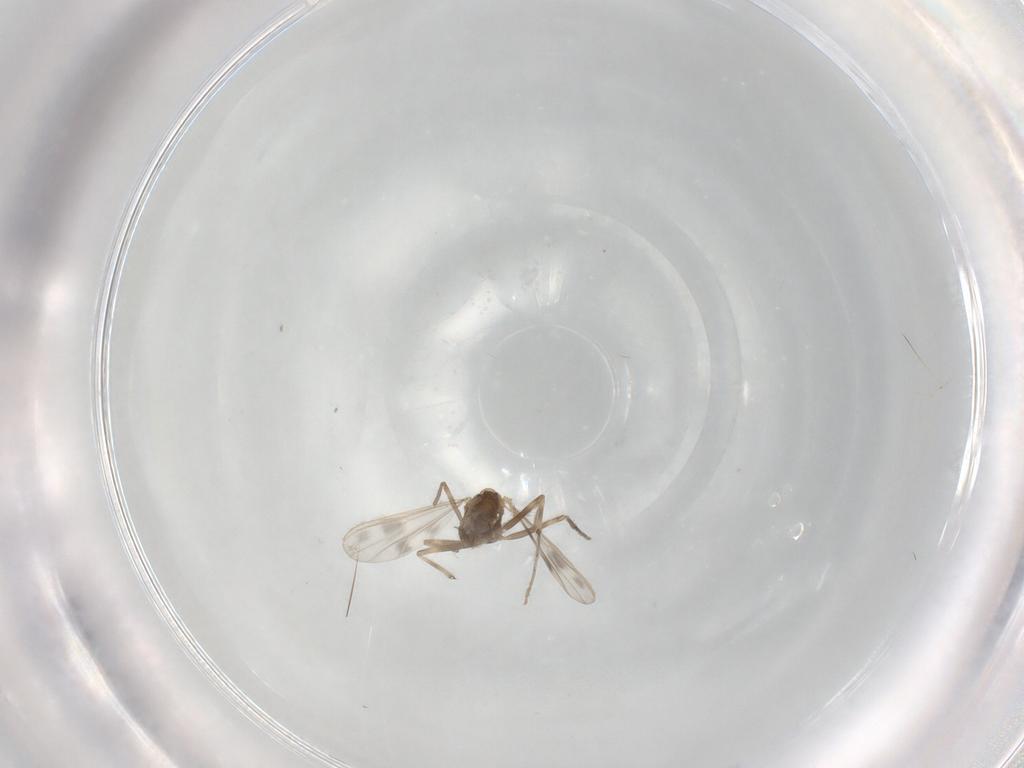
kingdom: Animalia
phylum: Arthropoda
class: Insecta
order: Diptera
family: Chironomidae
